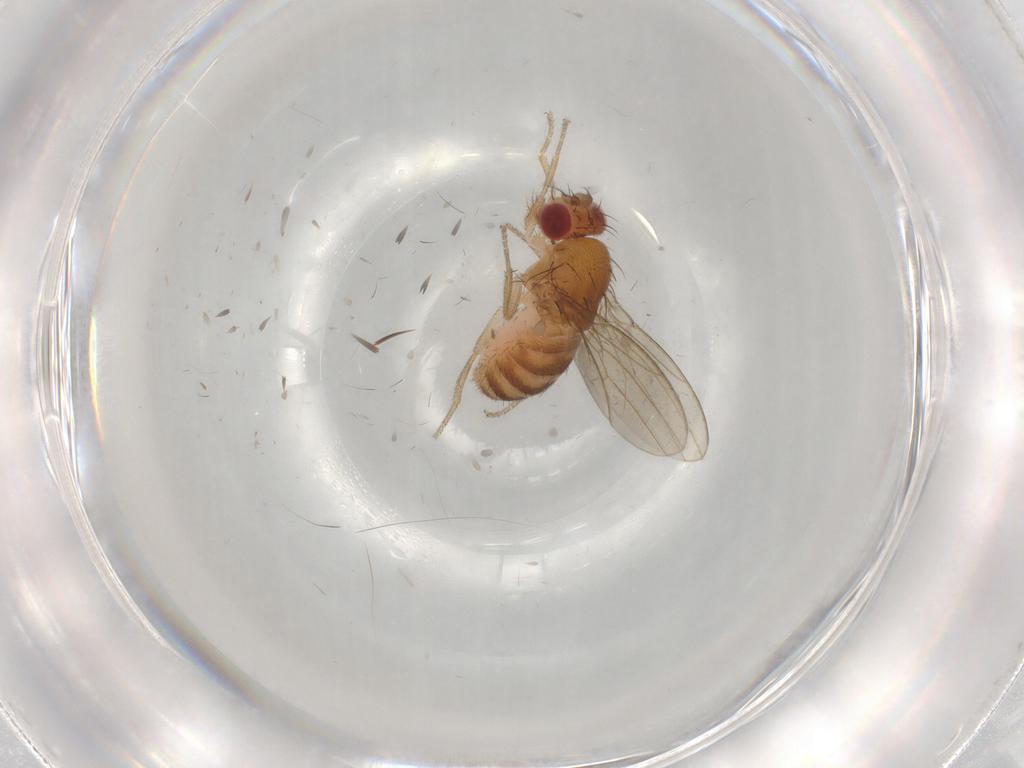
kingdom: Animalia
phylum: Arthropoda
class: Insecta
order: Diptera
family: Drosophilidae
